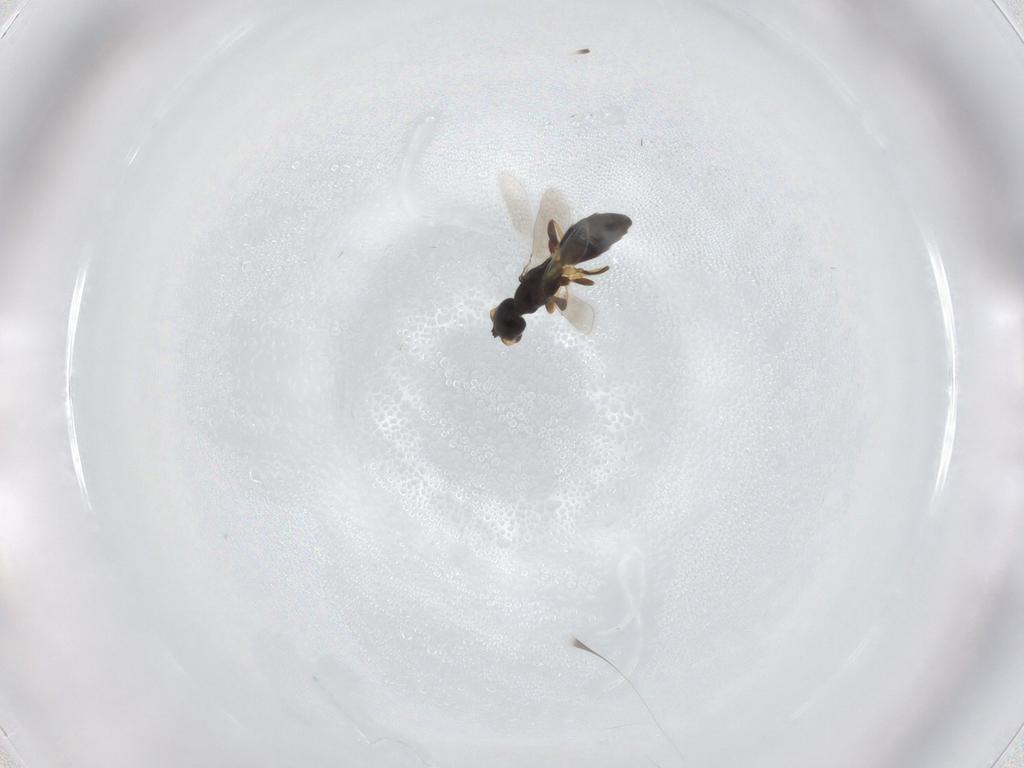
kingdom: Animalia
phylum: Arthropoda
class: Insecta
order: Hymenoptera
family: Bethylidae
